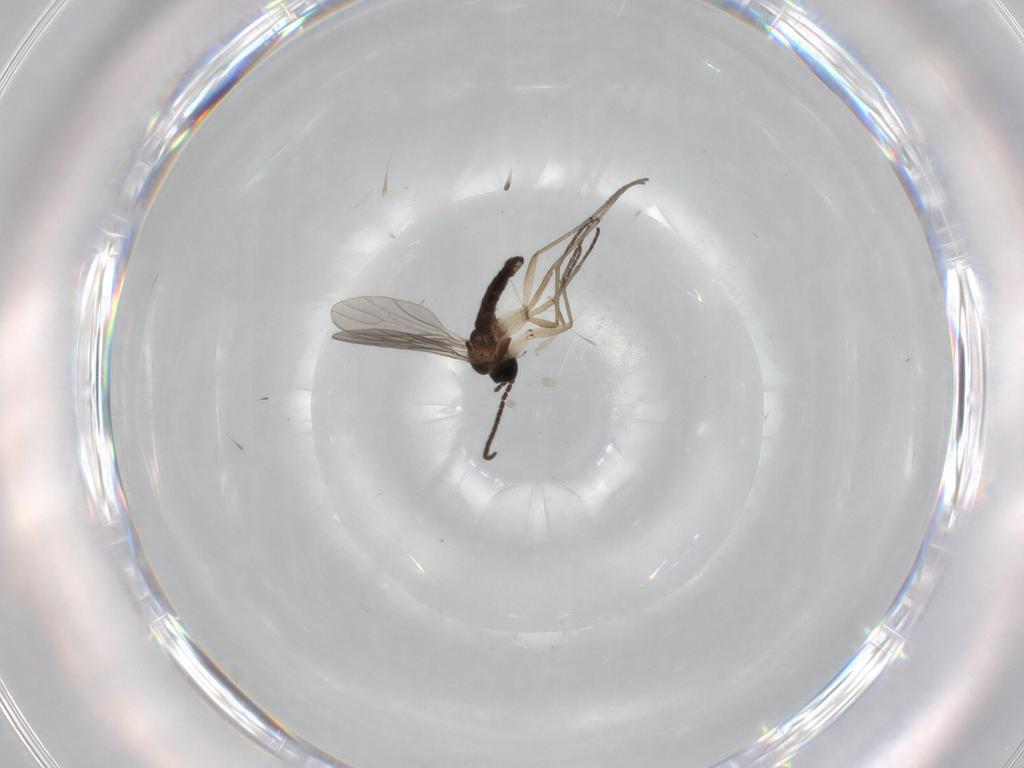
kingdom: Animalia
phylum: Arthropoda
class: Insecta
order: Diptera
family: Sciaridae
